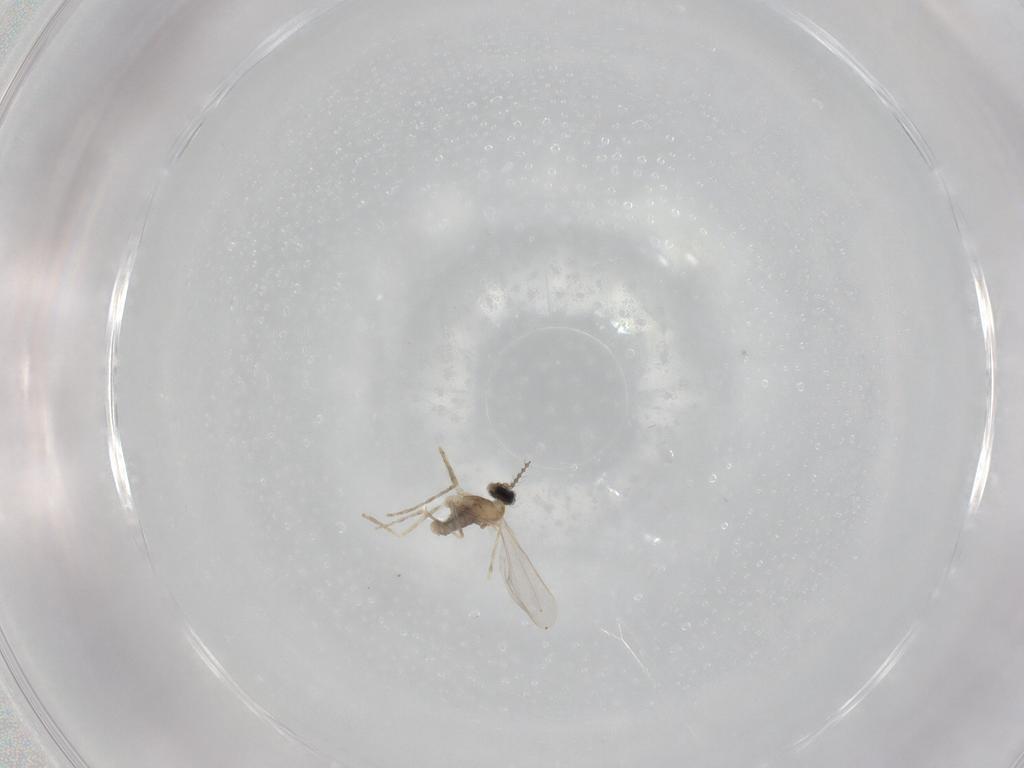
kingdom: Animalia
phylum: Arthropoda
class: Insecta
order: Diptera
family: Cecidomyiidae
